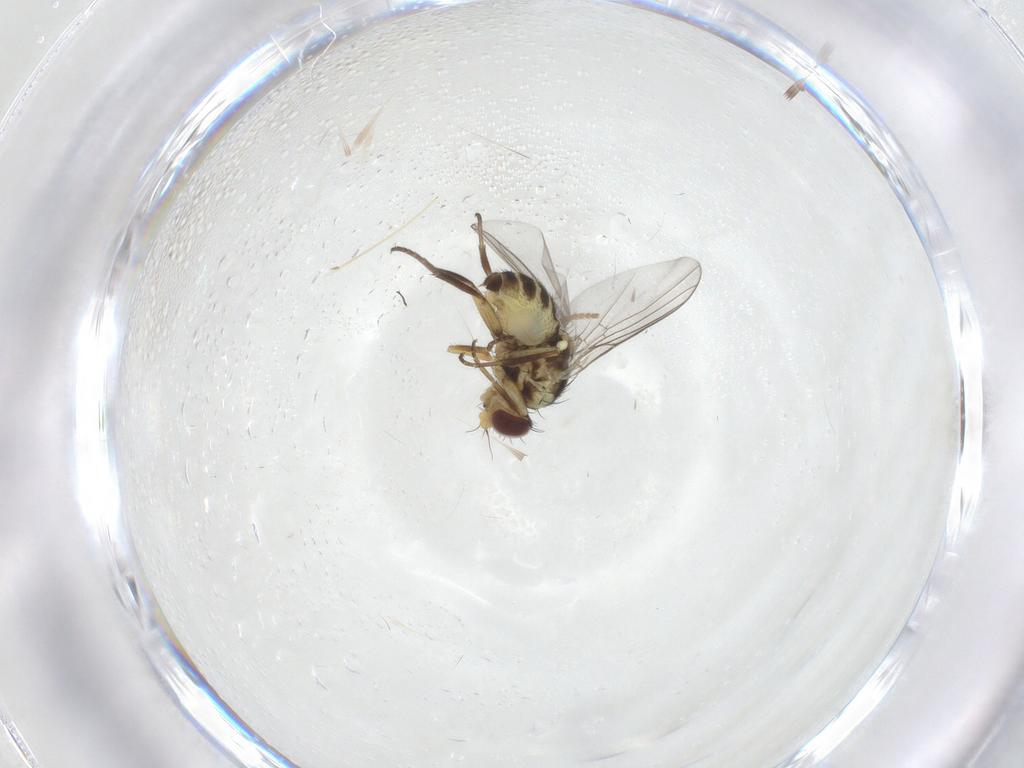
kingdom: Animalia
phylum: Arthropoda
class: Insecta
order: Diptera
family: Agromyzidae
